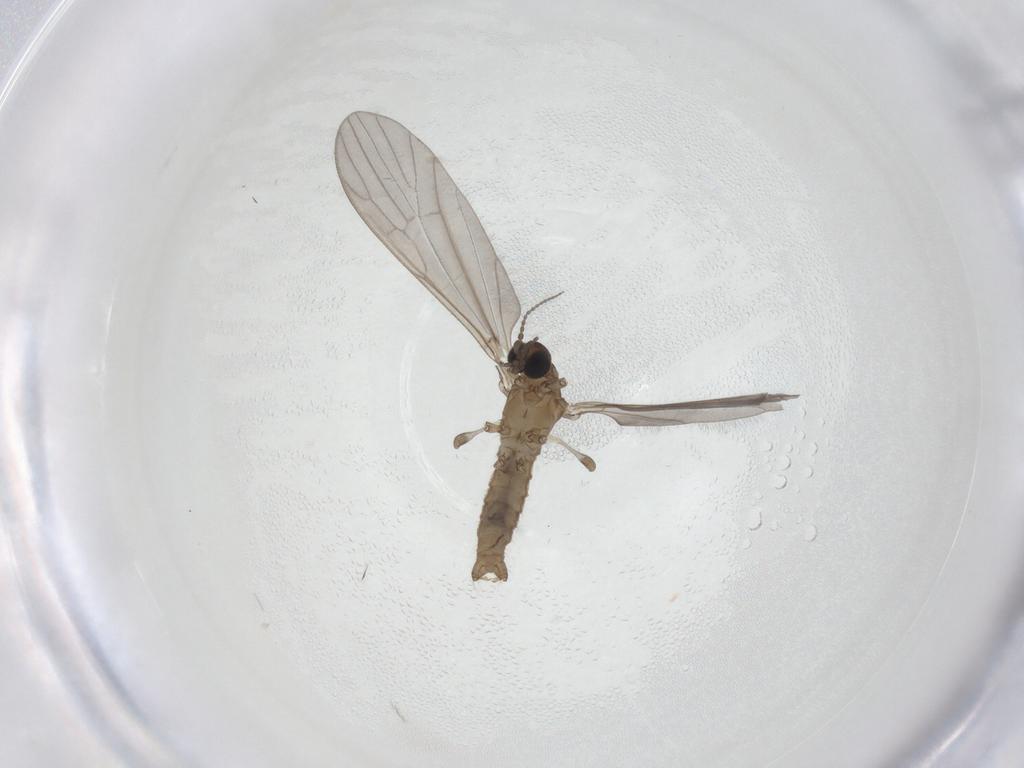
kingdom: Animalia
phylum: Arthropoda
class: Insecta
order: Diptera
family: Limoniidae
